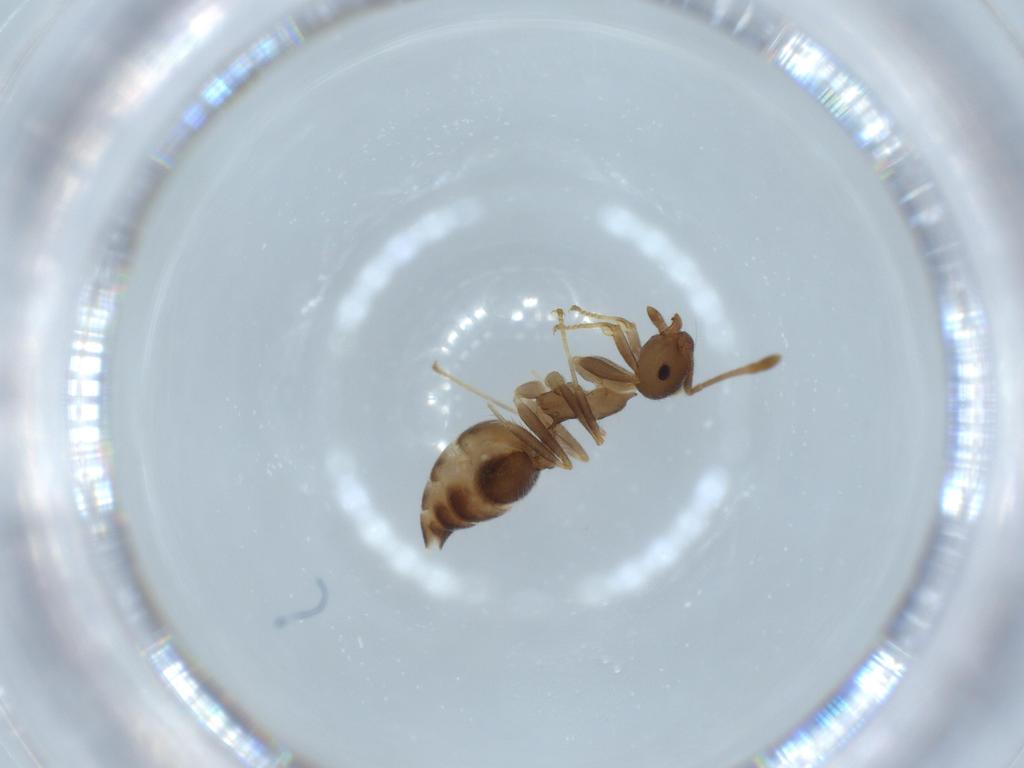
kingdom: Animalia
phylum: Arthropoda
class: Insecta
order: Hymenoptera
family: Formicidae
